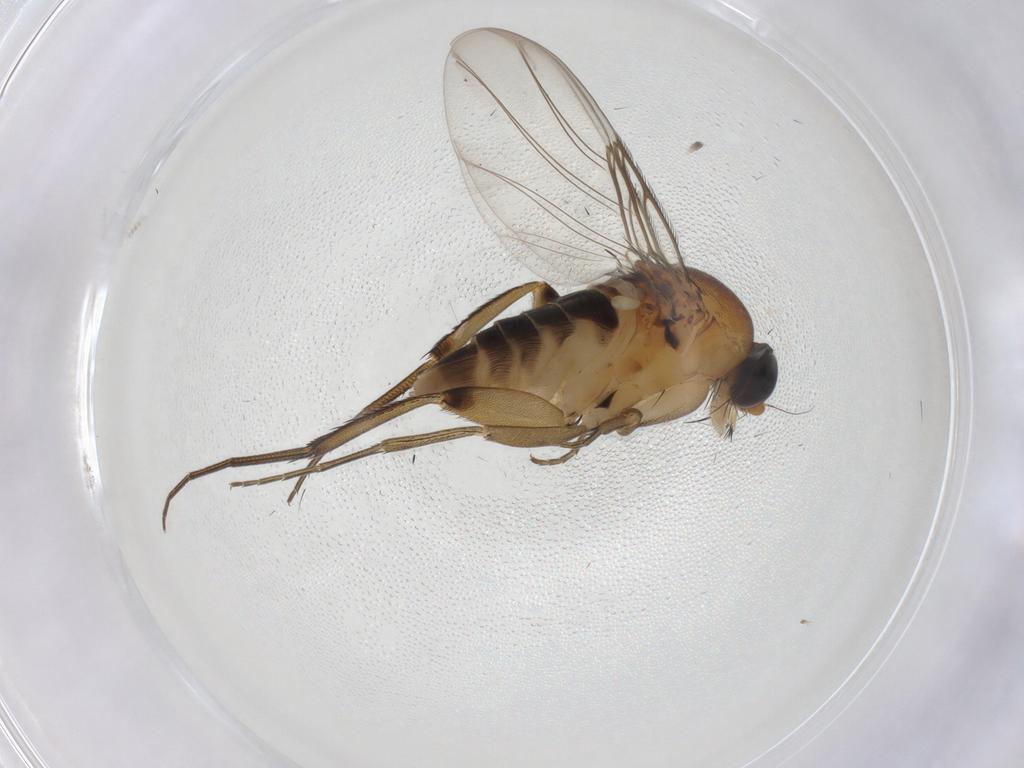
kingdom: Animalia
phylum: Arthropoda
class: Insecta
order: Diptera
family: Phoridae
